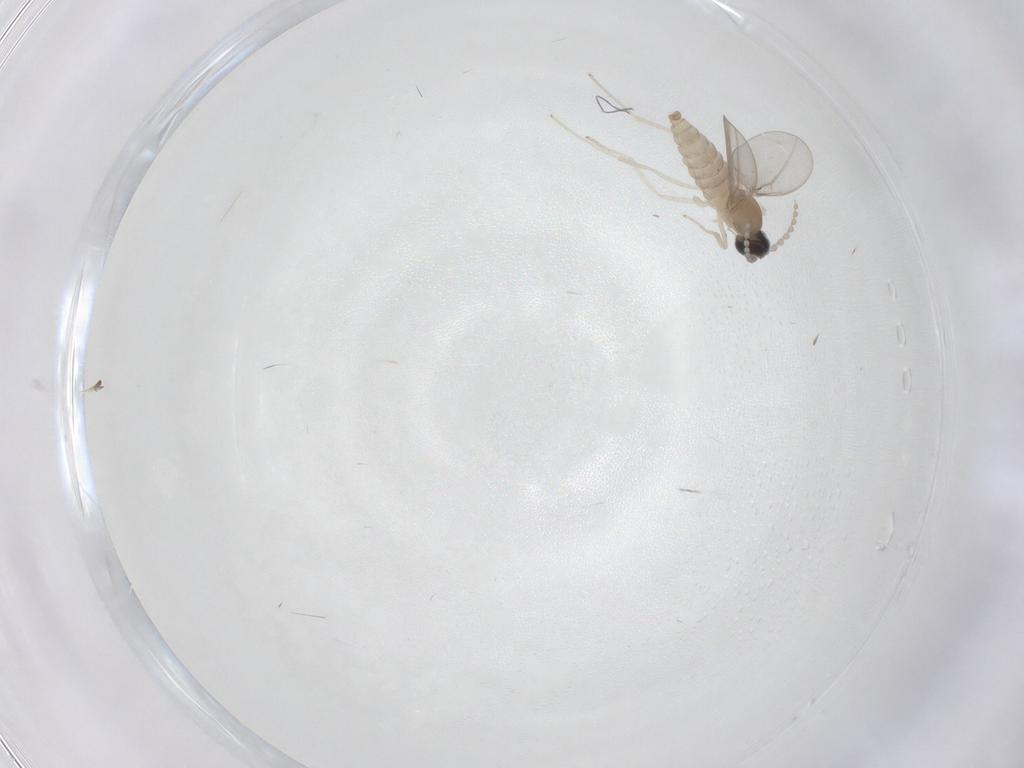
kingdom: Animalia
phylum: Arthropoda
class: Insecta
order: Diptera
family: Cecidomyiidae
